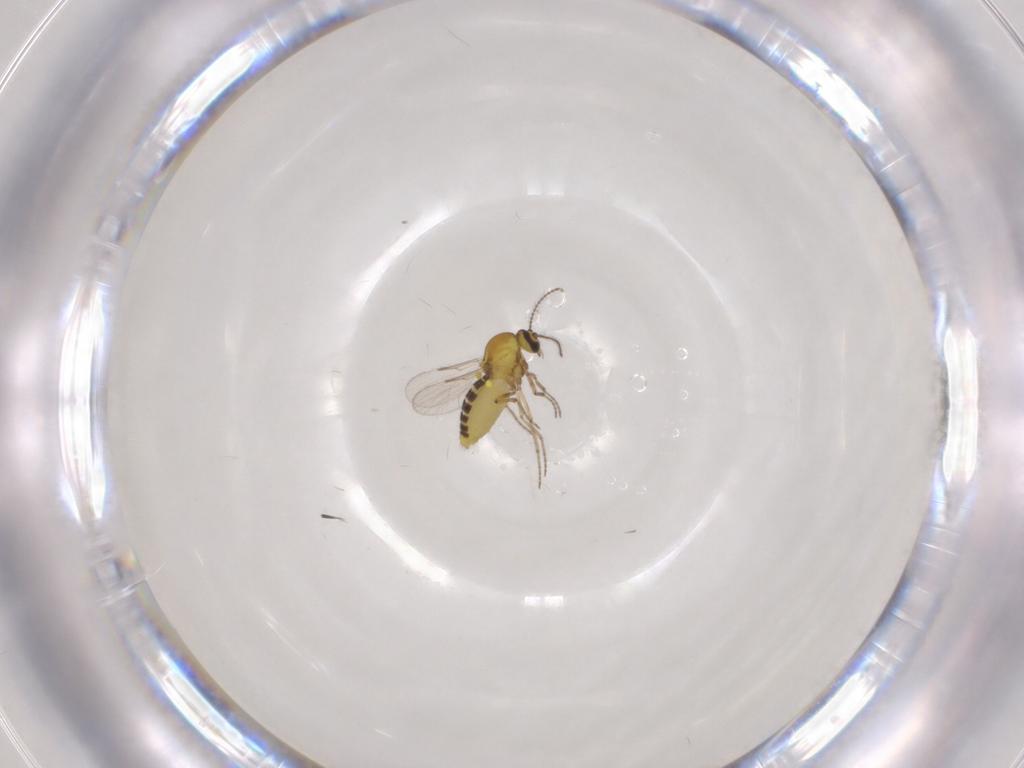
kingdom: Animalia
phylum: Arthropoda
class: Insecta
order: Diptera
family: Ceratopogonidae
